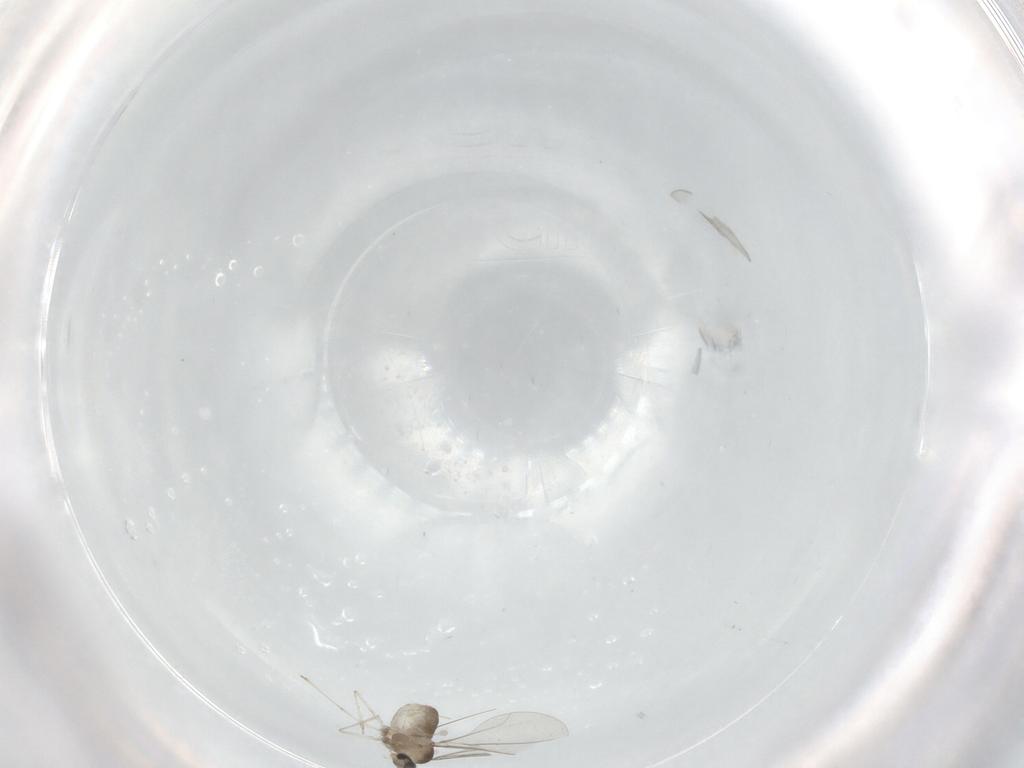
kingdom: Animalia
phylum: Arthropoda
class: Insecta
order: Diptera
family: Cecidomyiidae
